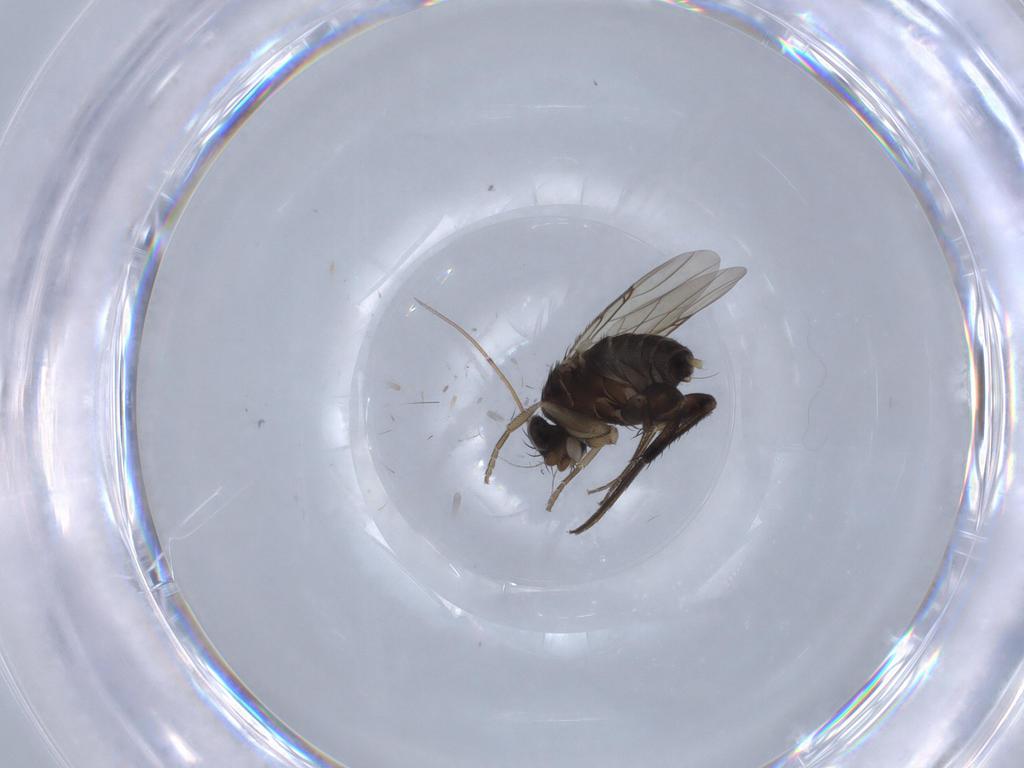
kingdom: Animalia
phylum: Arthropoda
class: Insecta
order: Diptera
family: Phoridae
